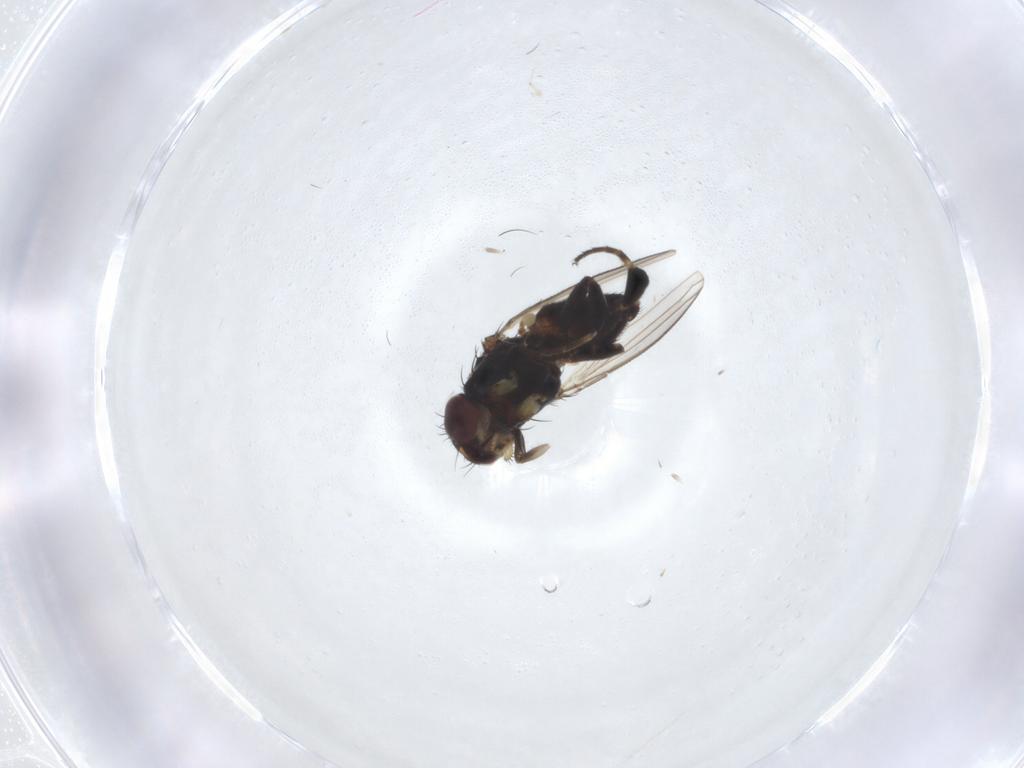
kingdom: Animalia
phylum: Arthropoda
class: Insecta
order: Diptera
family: Milichiidae
